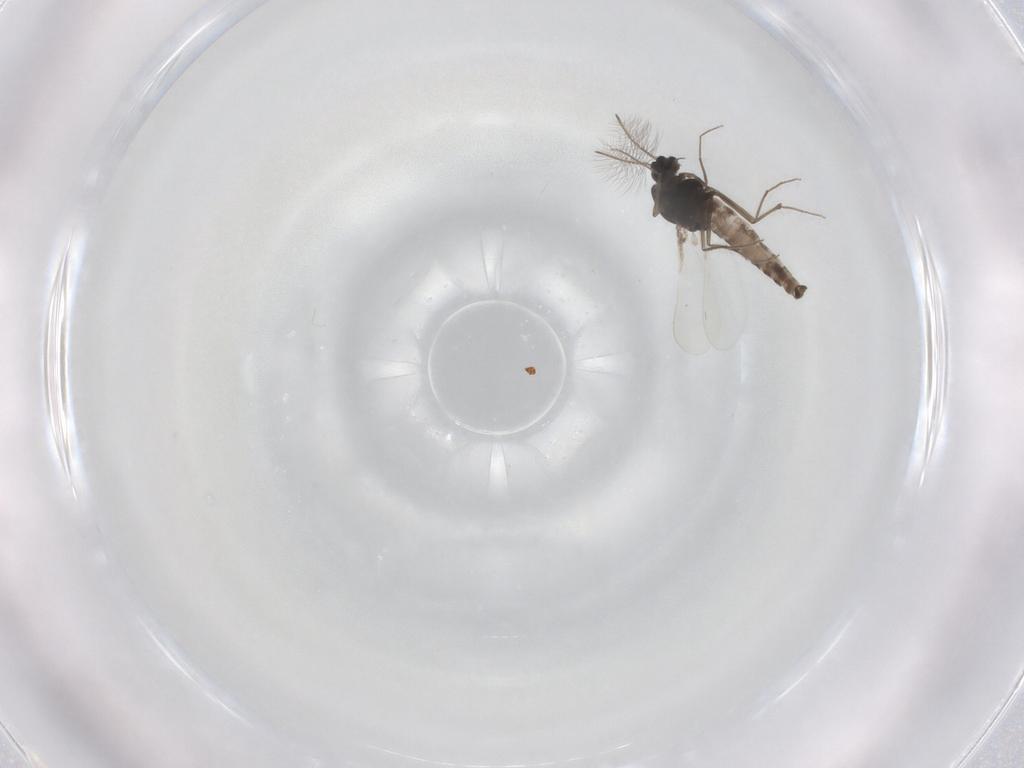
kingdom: Animalia
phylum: Arthropoda
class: Insecta
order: Diptera
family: Chironomidae
